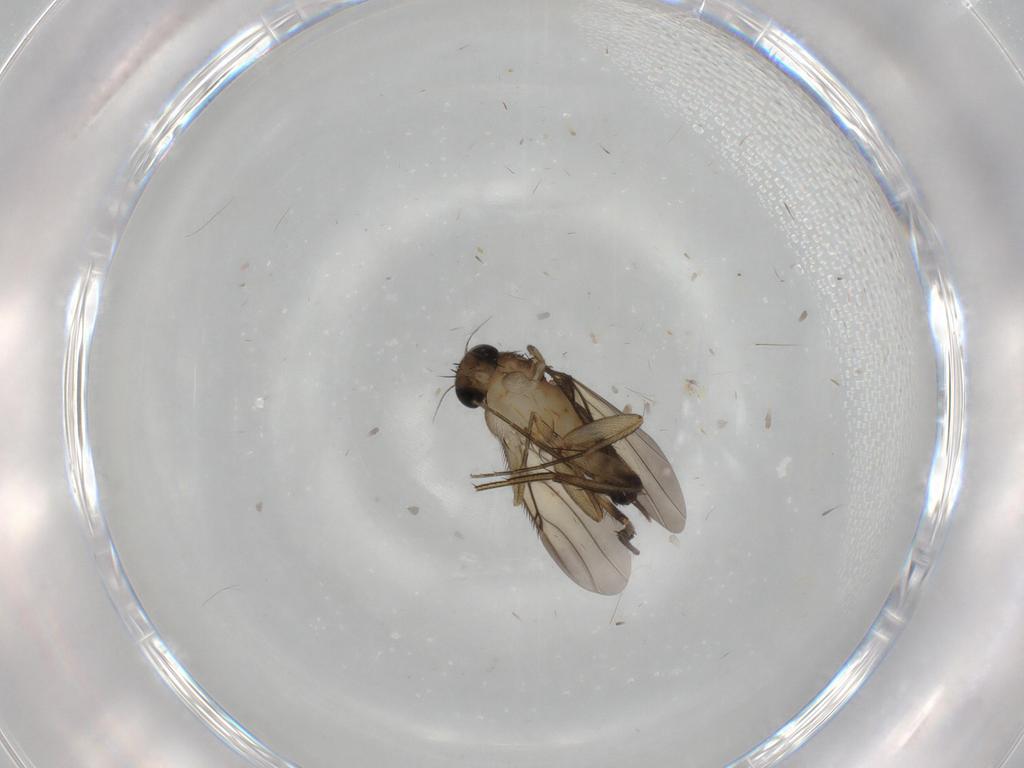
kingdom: Animalia
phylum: Arthropoda
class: Insecta
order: Diptera
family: Phoridae
